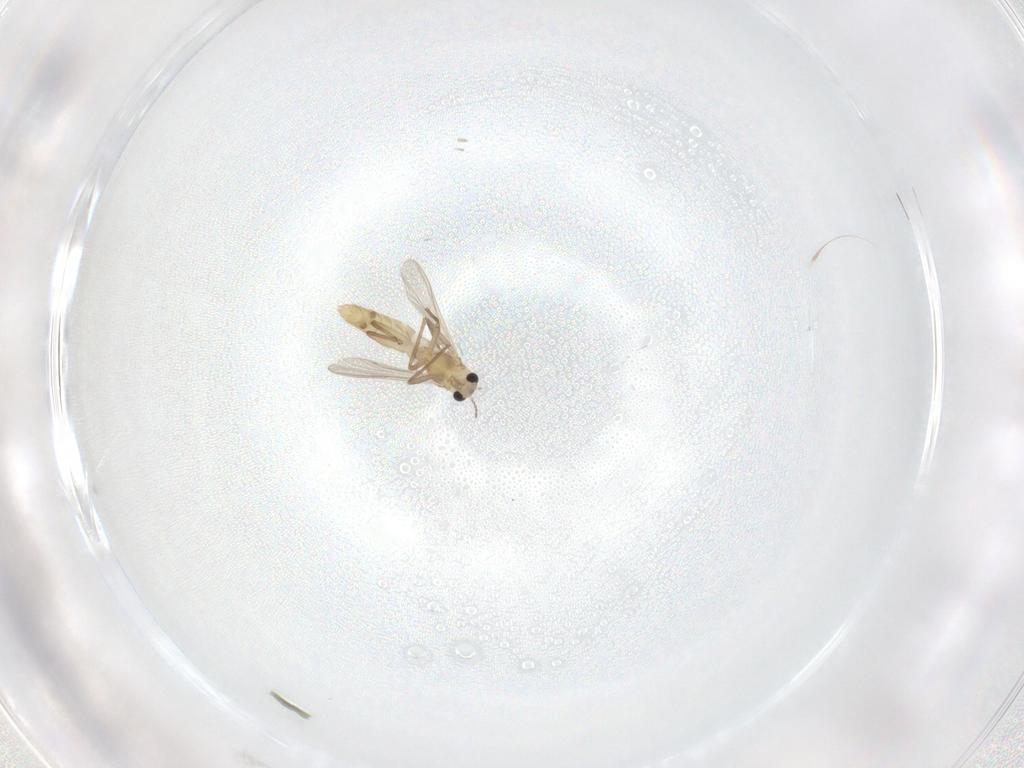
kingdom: Animalia
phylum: Arthropoda
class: Insecta
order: Diptera
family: Chironomidae
